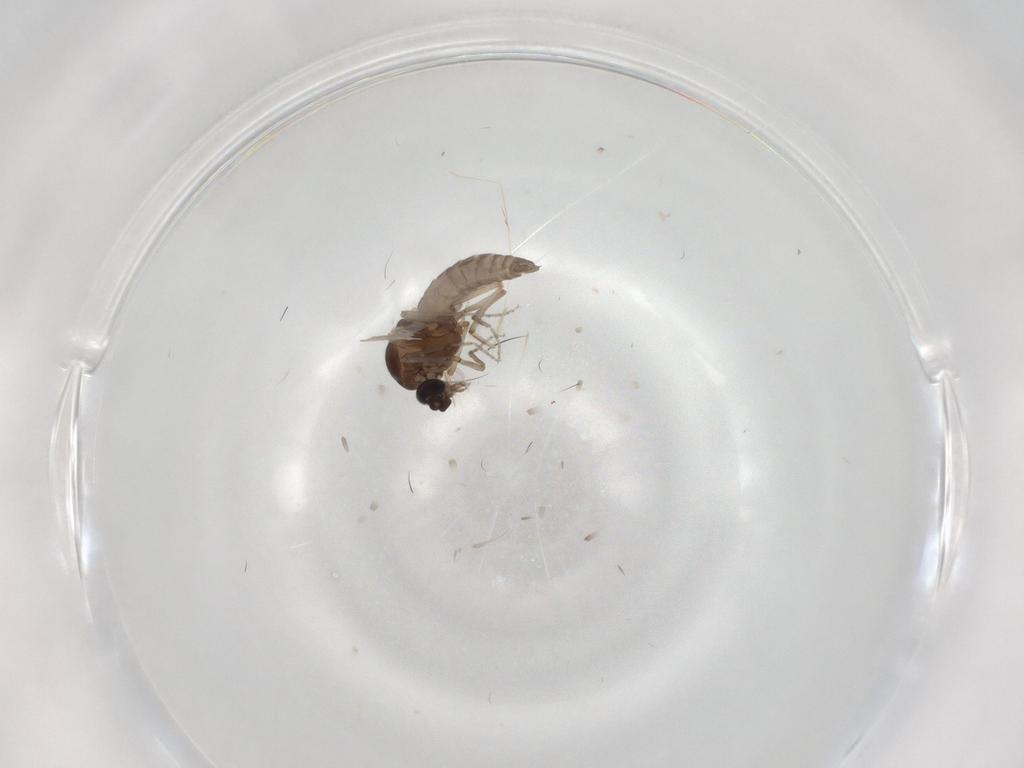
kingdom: Animalia
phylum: Arthropoda
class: Insecta
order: Diptera
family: Ceratopogonidae
